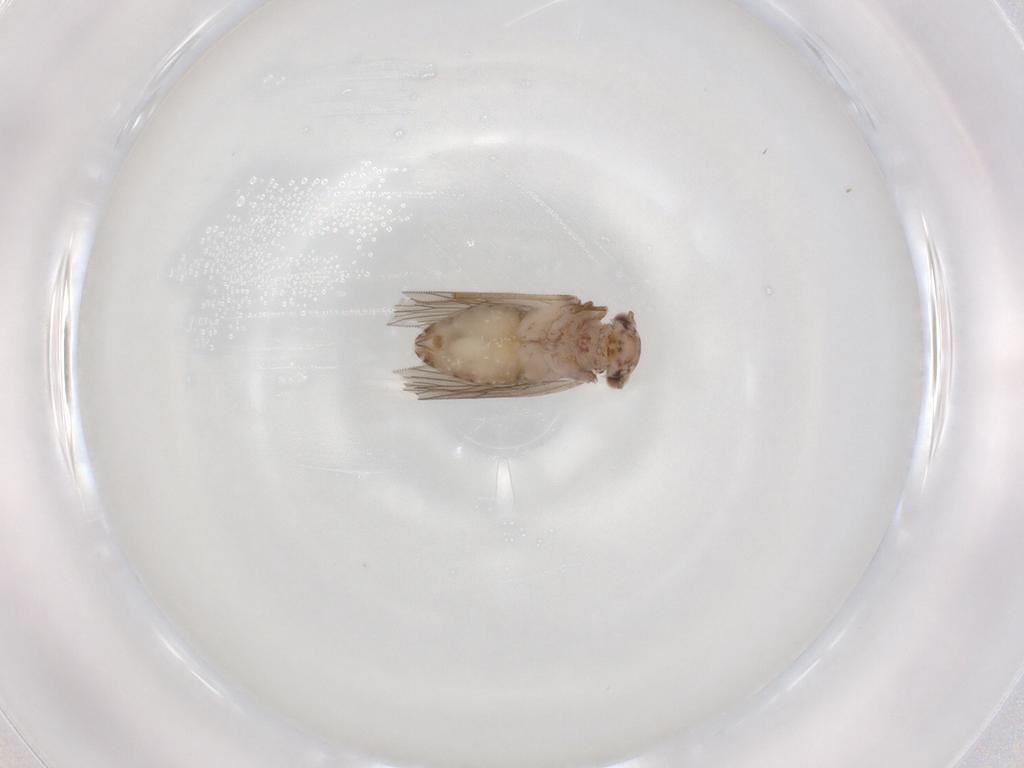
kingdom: Animalia
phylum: Arthropoda
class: Insecta
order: Psocodea
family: Lepidopsocidae
